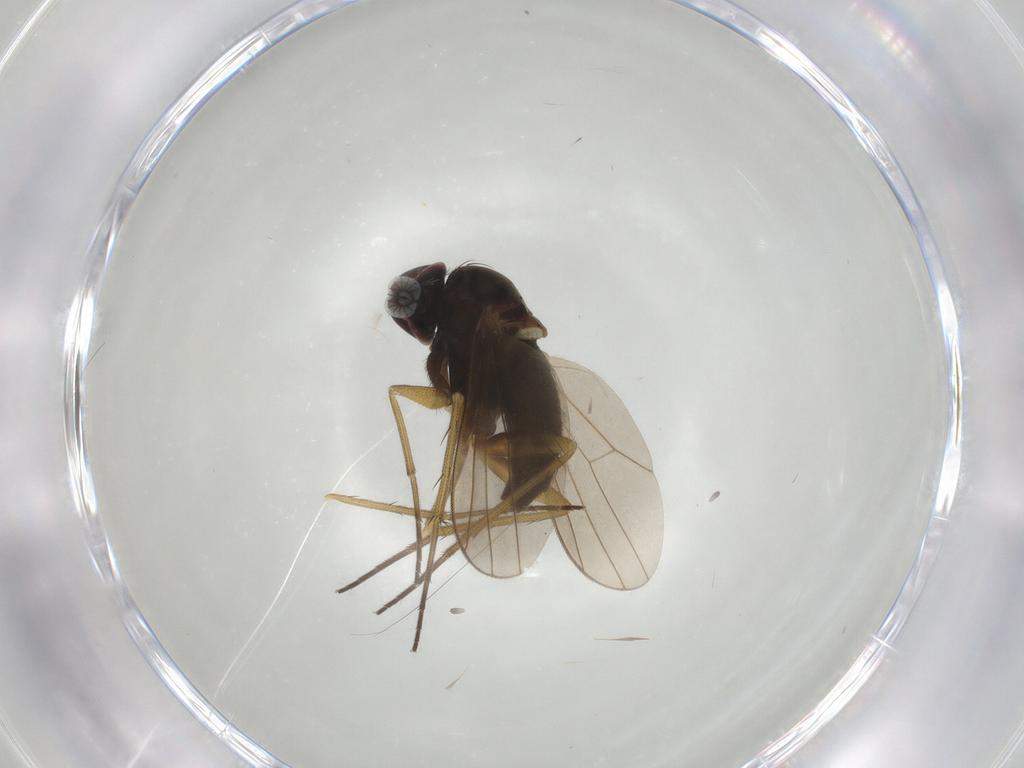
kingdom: Animalia
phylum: Arthropoda
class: Insecta
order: Diptera
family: Dolichopodidae
